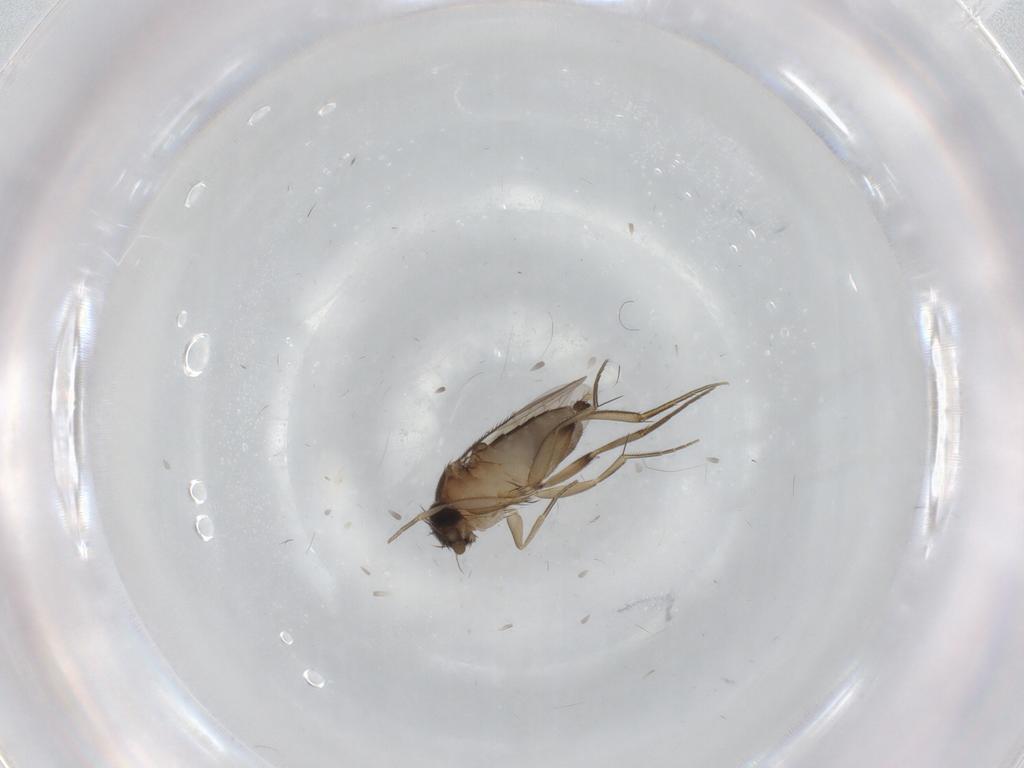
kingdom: Animalia
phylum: Arthropoda
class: Insecta
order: Diptera
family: Phoridae
